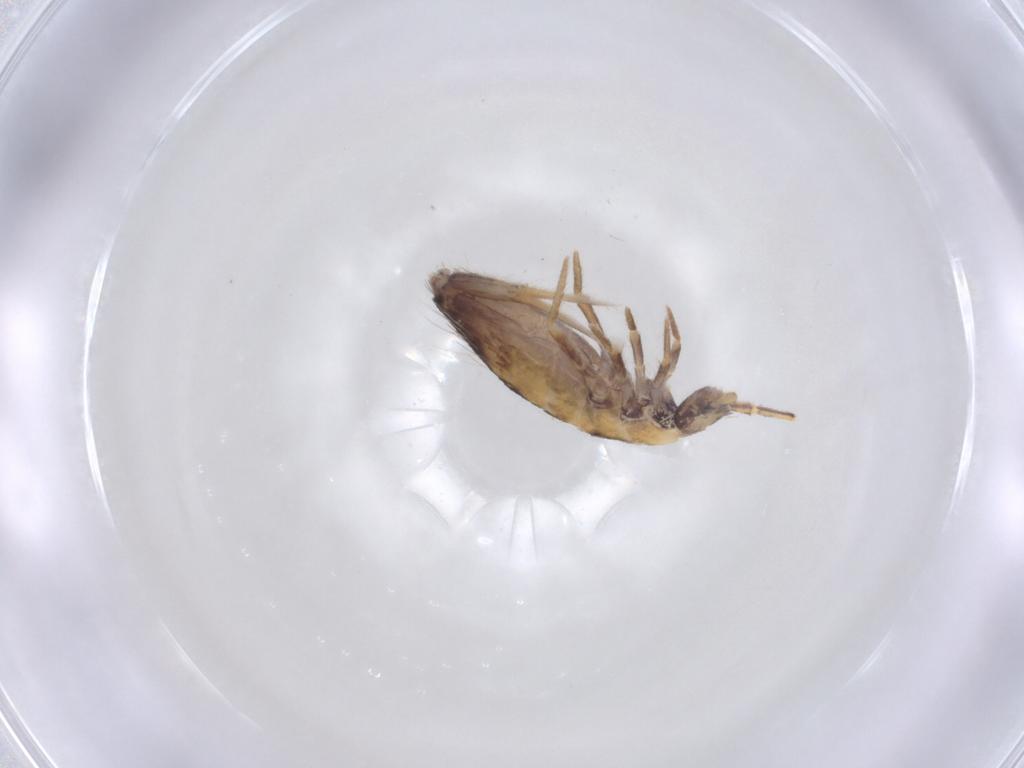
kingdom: Animalia
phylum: Arthropoda
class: Collembola
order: Entomobryomorpha
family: Entomobryidae
